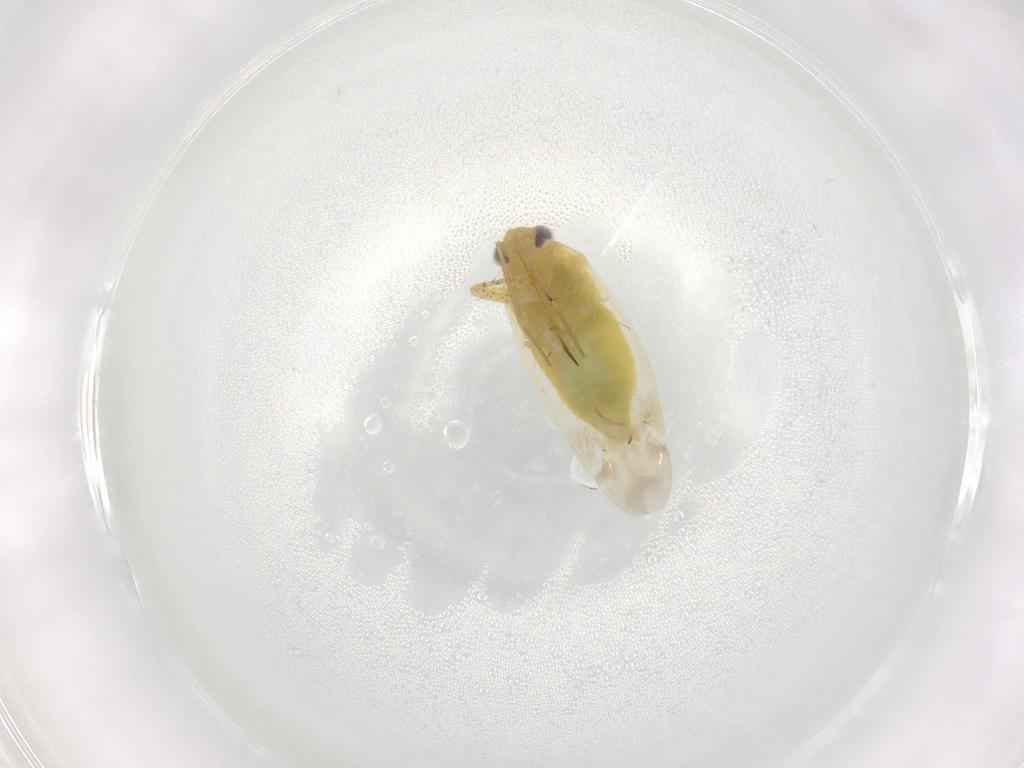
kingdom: Animalia
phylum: Arthropoda
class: Insecta
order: Hemiptera
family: Miridae
